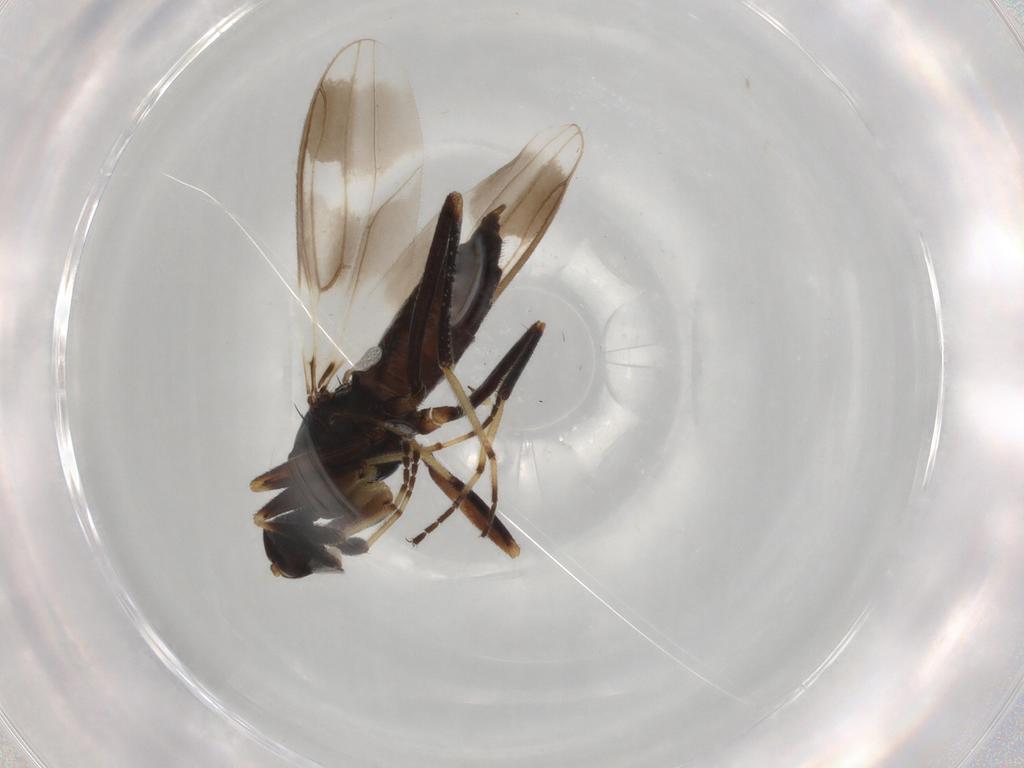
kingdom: Animalia
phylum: Arthropoda
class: Insecta
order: Diptera
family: Hybotidae
